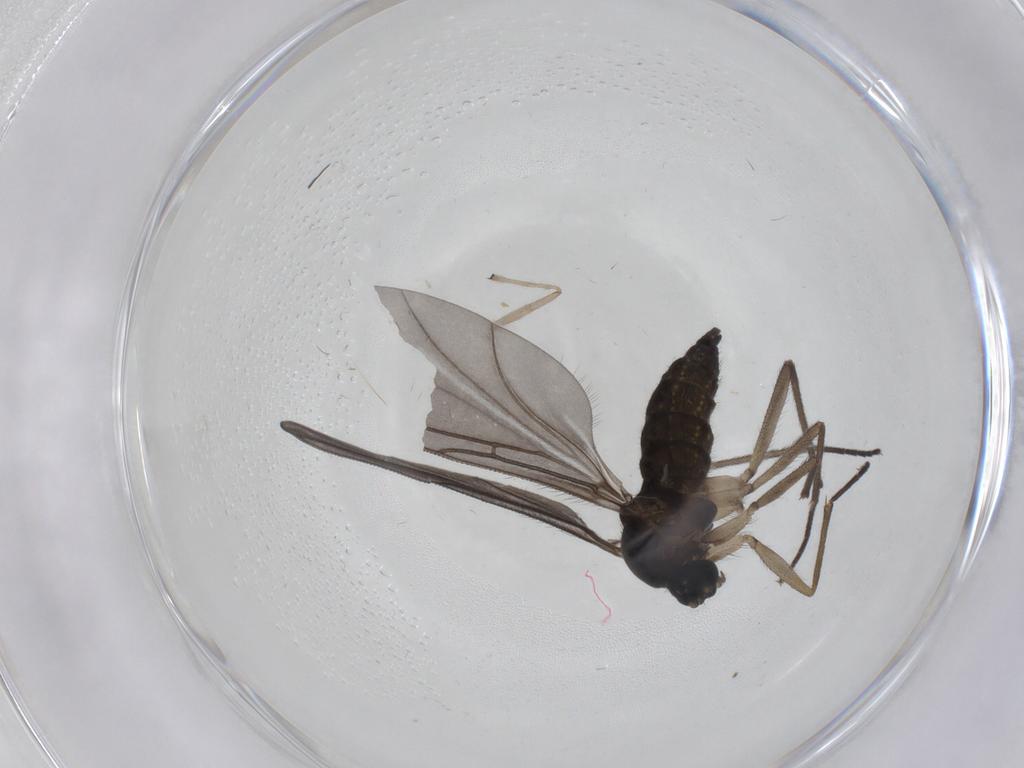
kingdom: Animalia
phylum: Arthropoda
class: Insecta
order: Diptera
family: Sciaridae
